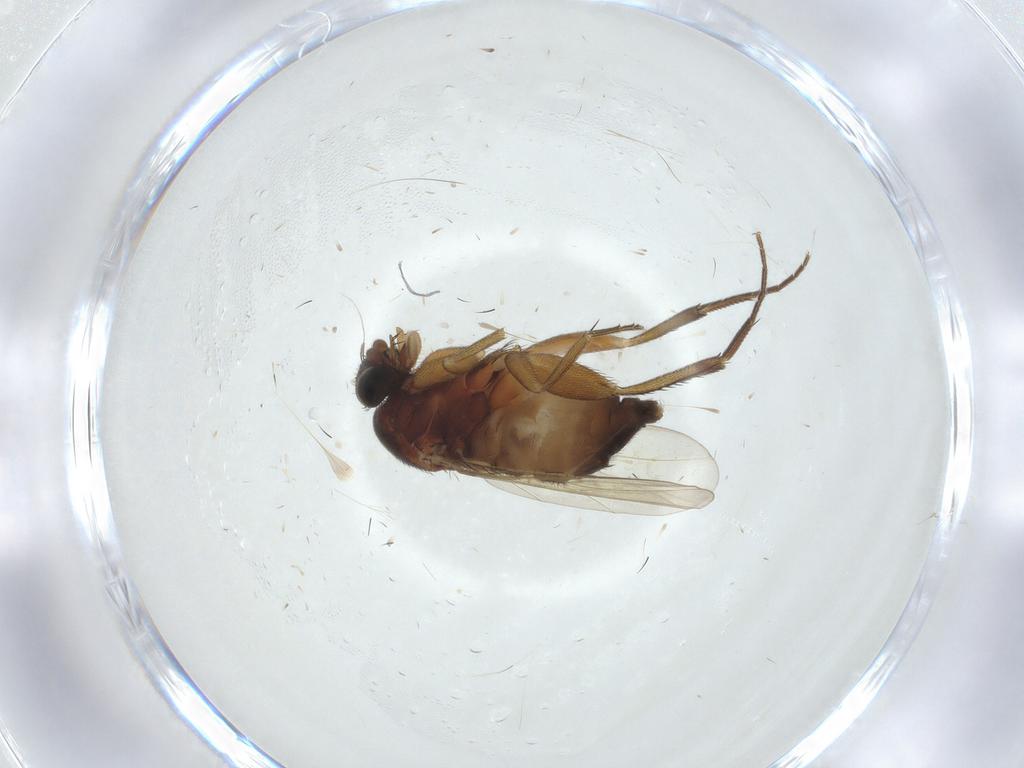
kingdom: Animalia
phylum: Arthropoda
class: Insecta
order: Diptera
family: Phoridae
